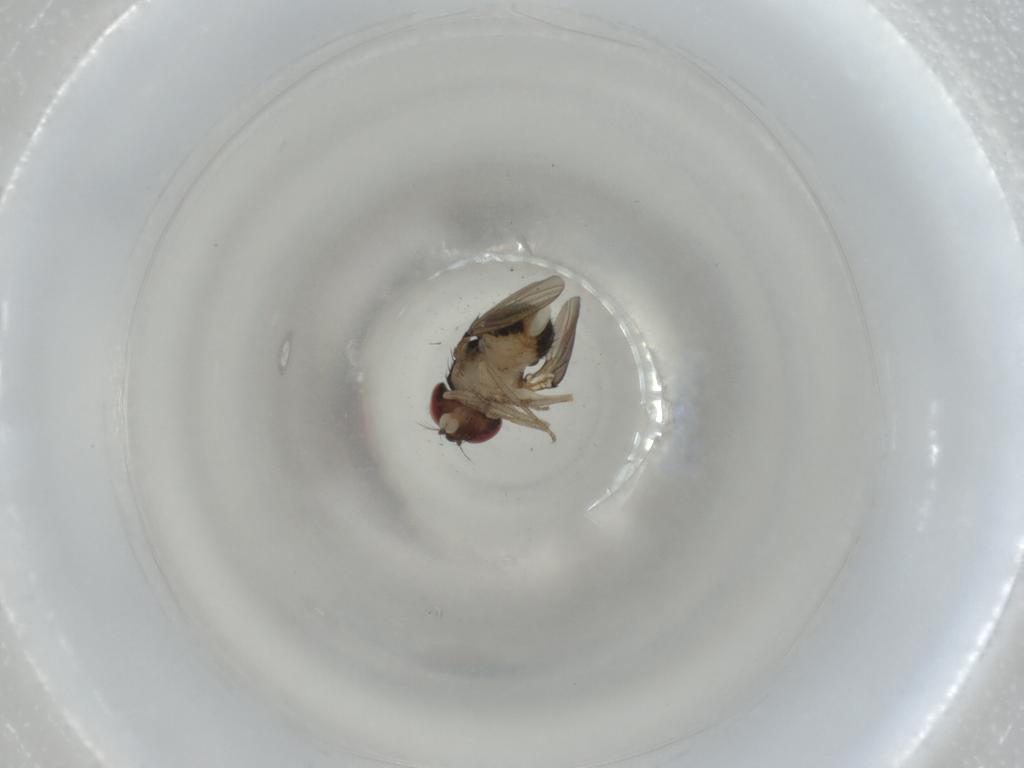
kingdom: Animalia
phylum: Arthropoda
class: Insecta
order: Diptera
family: Drosophilidae
